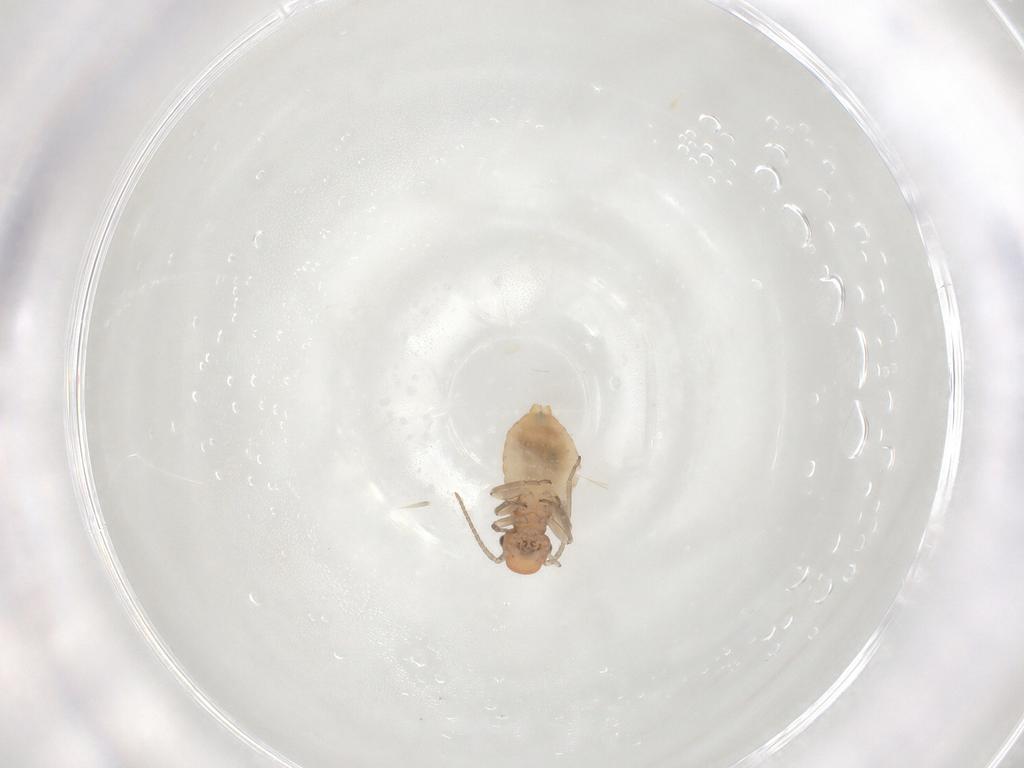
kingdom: Animalia
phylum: Arthropoda
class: Insecta
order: Psocodea
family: Caeciliusidae
